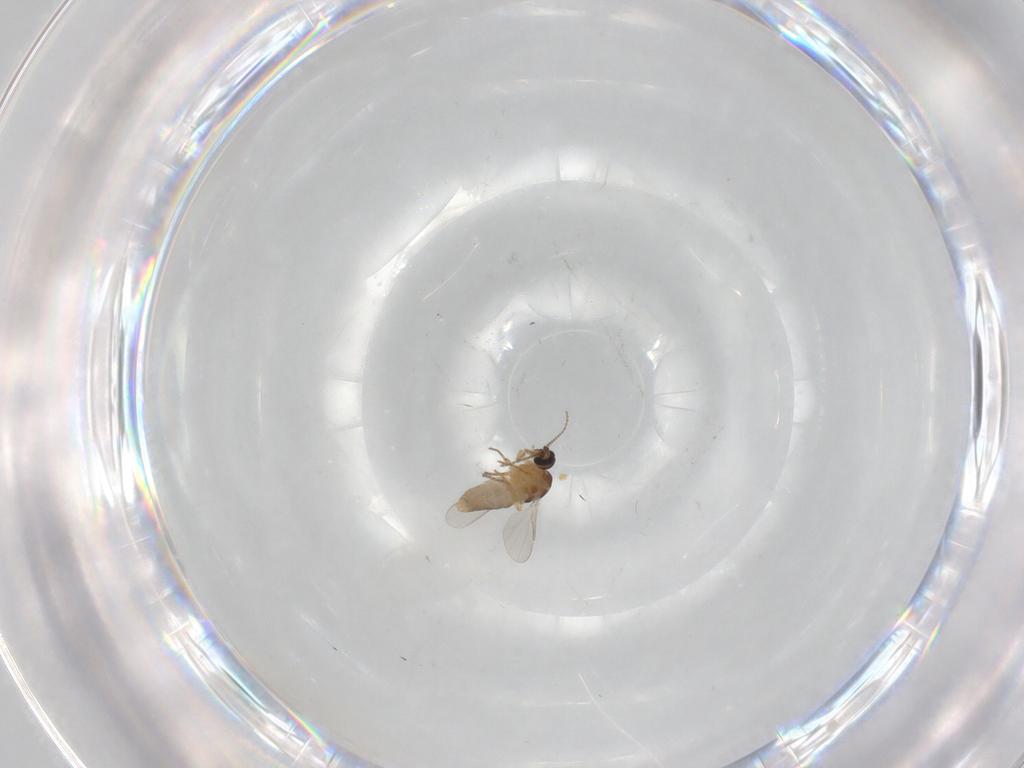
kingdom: Animalia
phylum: Arthropoda
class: Insecta
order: Diptera
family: Ceratopogonidae
